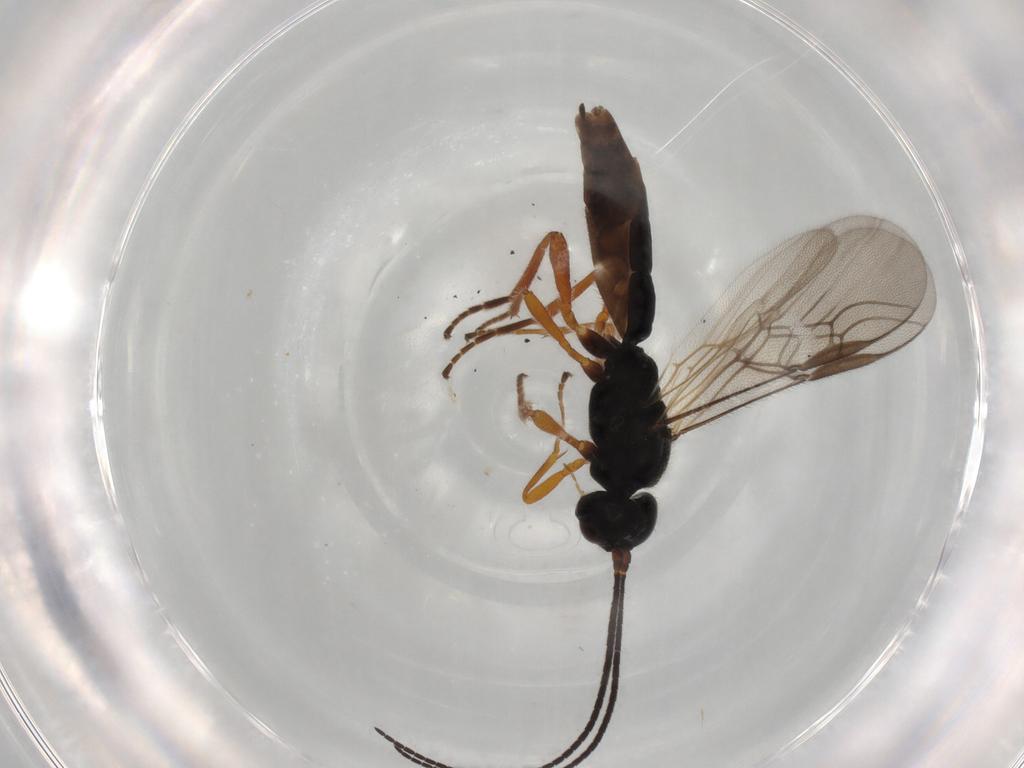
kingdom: Animalia
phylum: Arthropoda
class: Insecta
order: Hymenoptera
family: Braconidae
